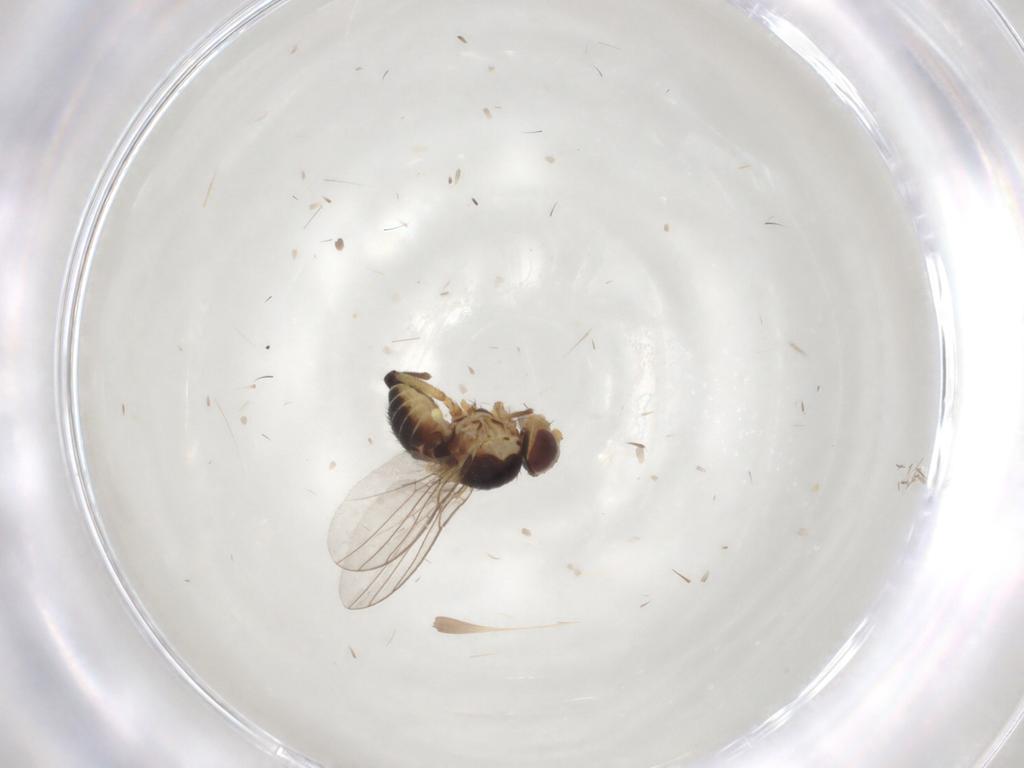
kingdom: Animalia
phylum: Arthropoda
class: Insecta
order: Diptera
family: Agromyzidae
